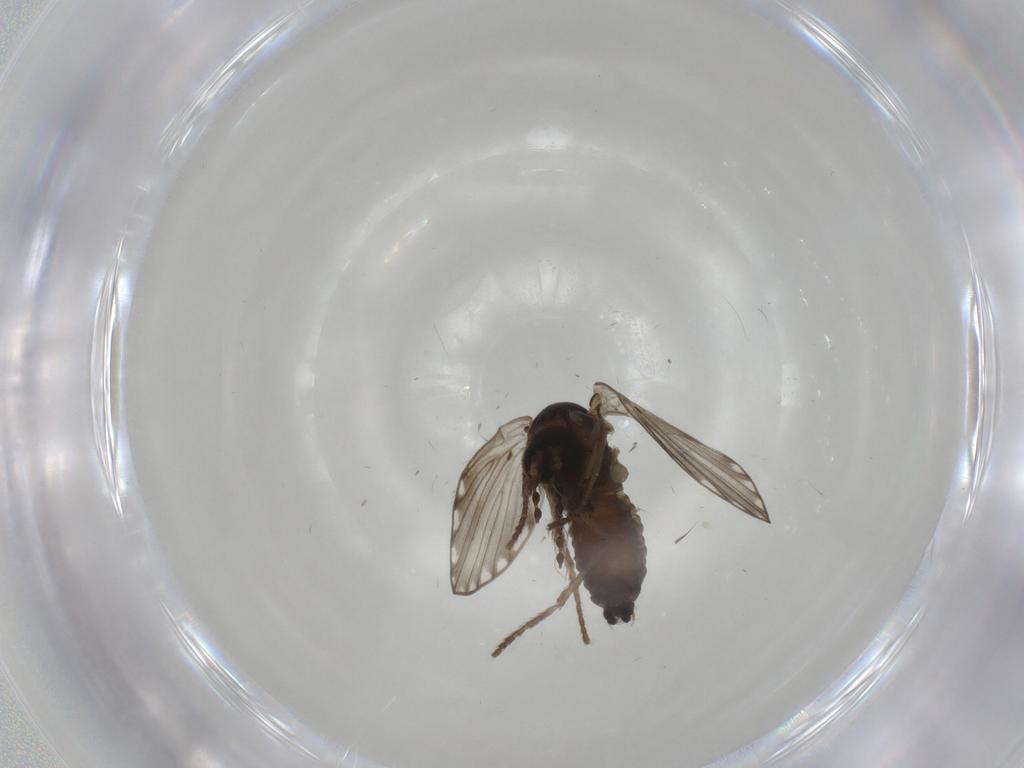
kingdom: Animalia
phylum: Arthropoda
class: Insecta
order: Diptera
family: Psychodidae
